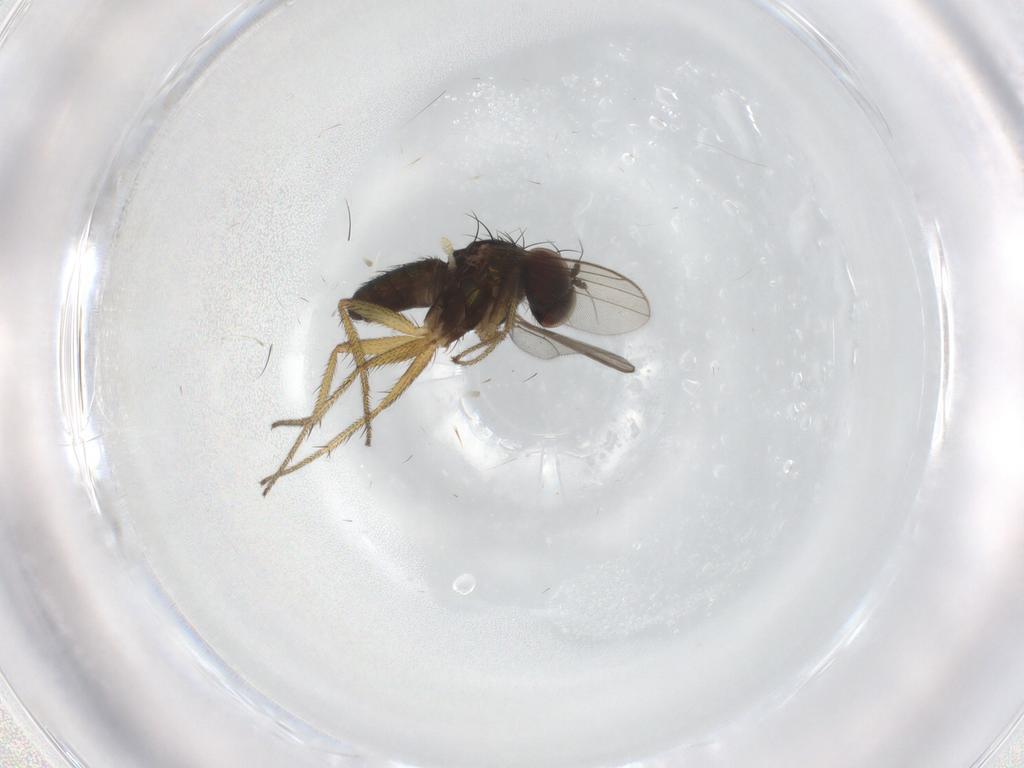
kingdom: Animalia
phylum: Arthropoda
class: Insecta
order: Diptera
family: Dolichopodidae
